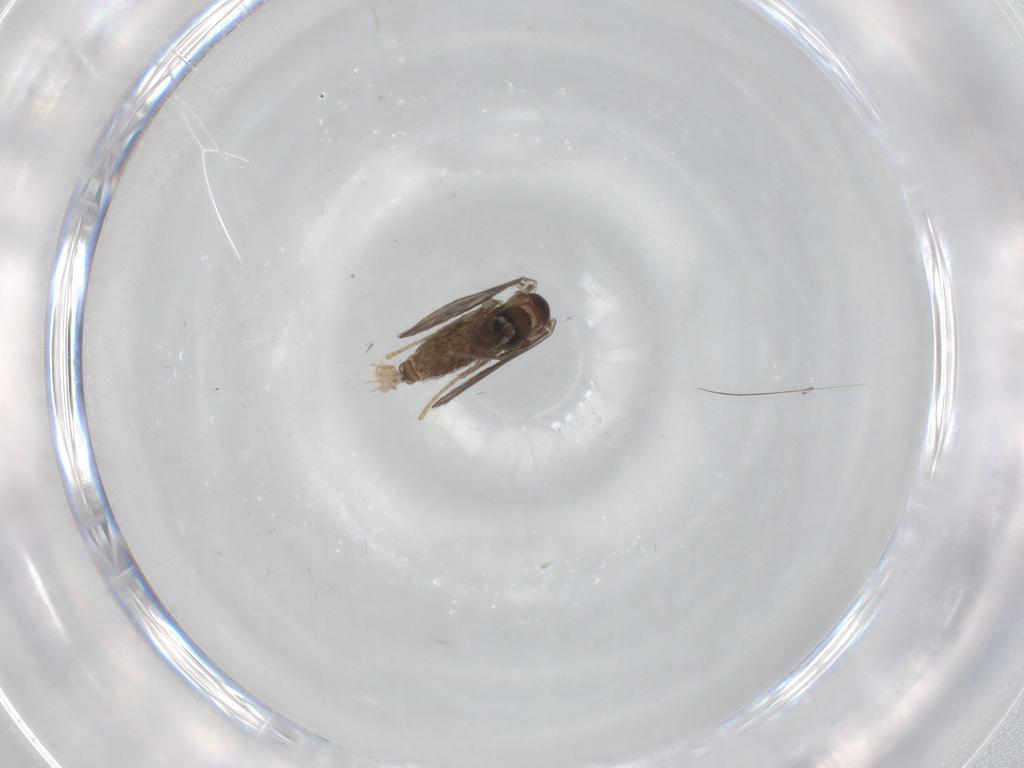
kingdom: Animalia
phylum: Arthropoda
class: Insecta
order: Diptera
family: Psychodidae
